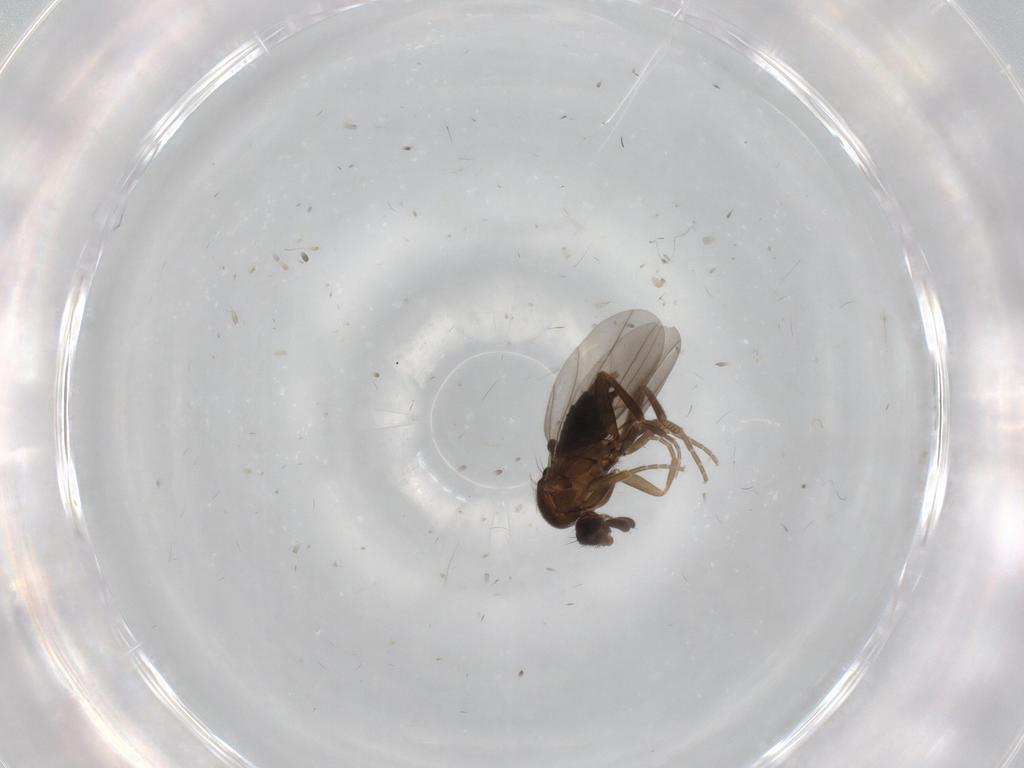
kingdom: Animalia
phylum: Arthropoda
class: Insecta
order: Diptera
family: Phoridae
